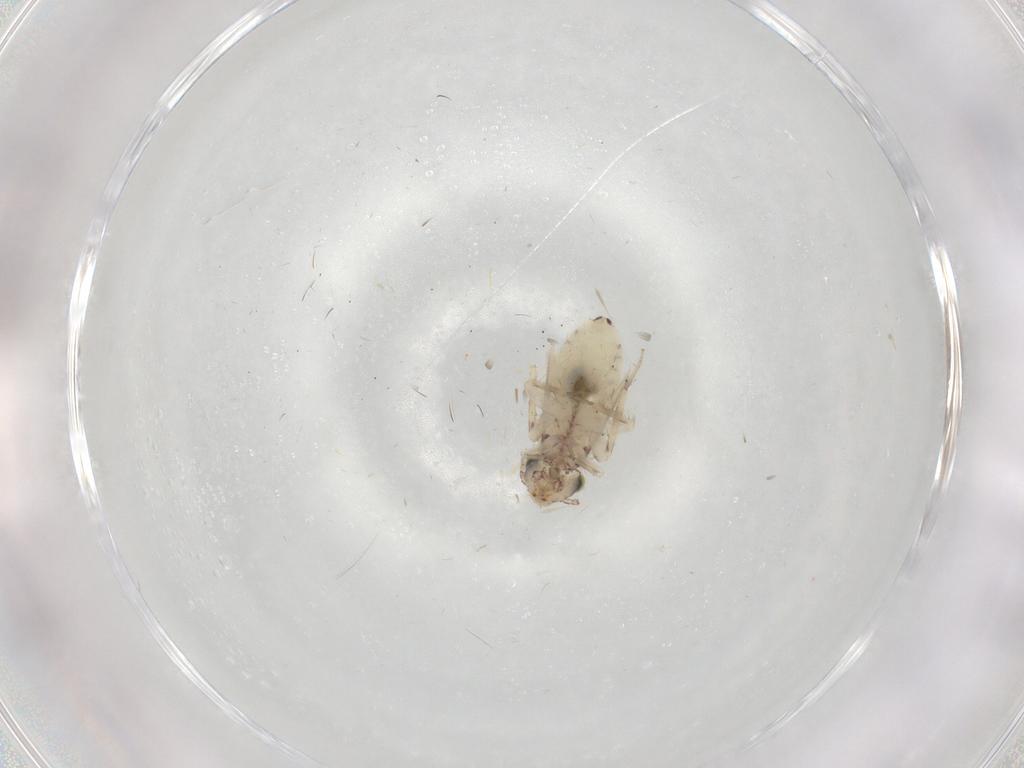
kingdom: Animalia
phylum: Arthropoda
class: Insecta
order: Psocodea
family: Lepidopsocidae
